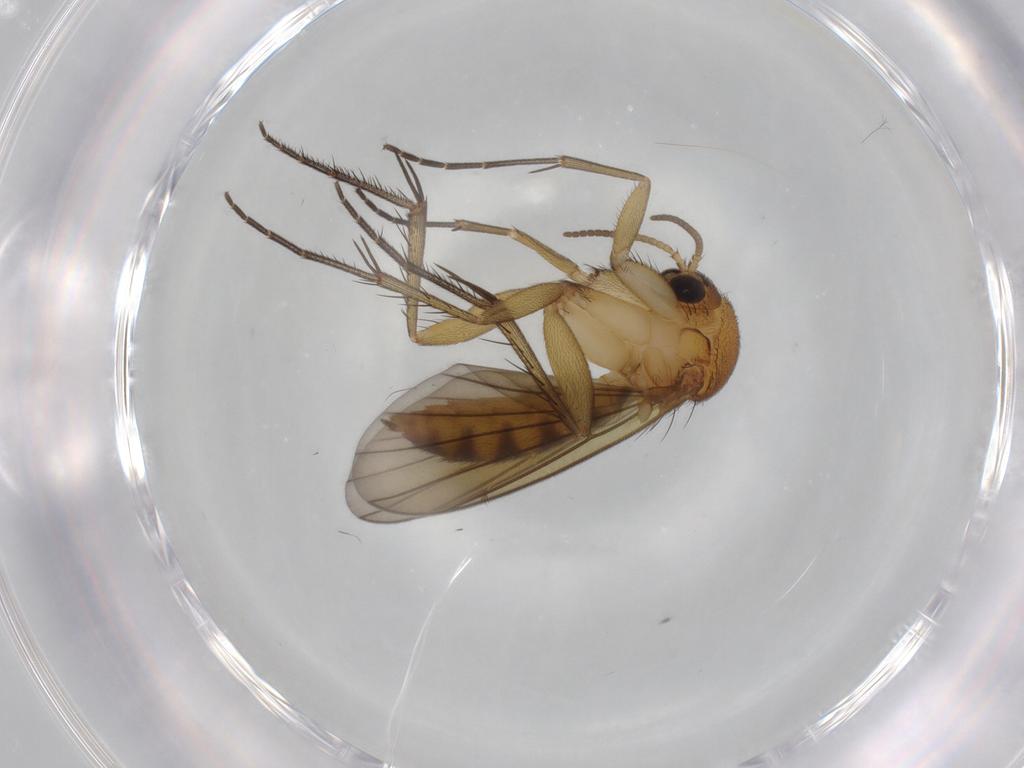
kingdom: Animalia
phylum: Arthropoda
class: Insecta
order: Diptera
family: Mycetophilidae
